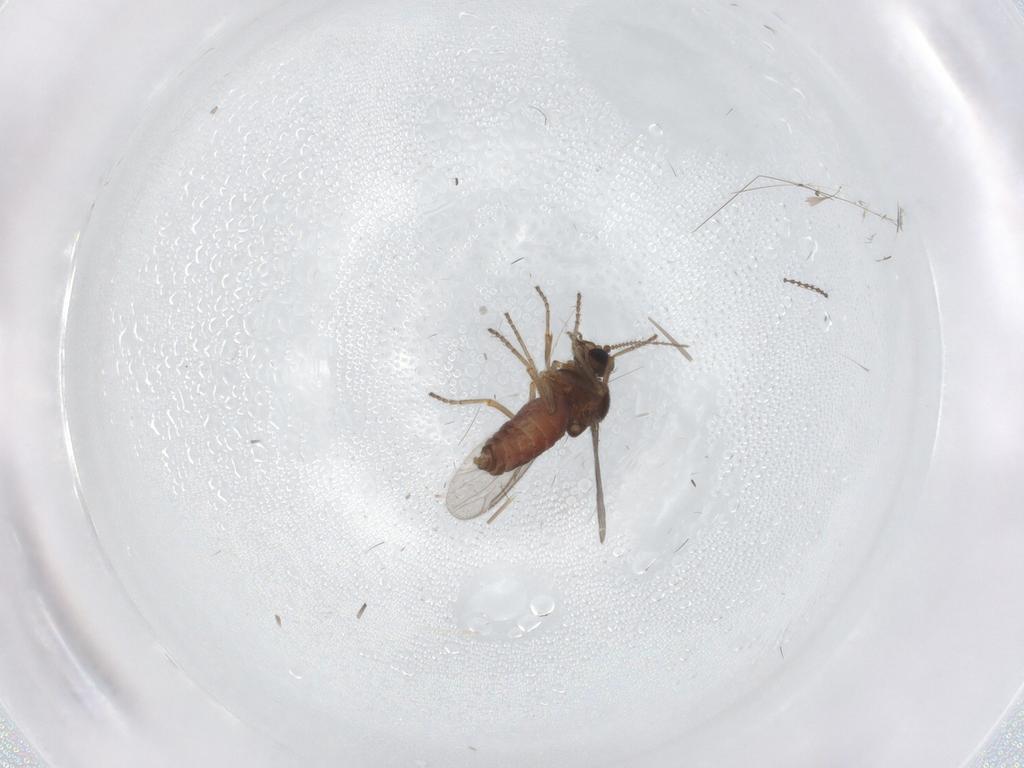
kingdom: Animalia
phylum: Arthropoda
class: Insecta
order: Diptera
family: Ceratopogonidae
